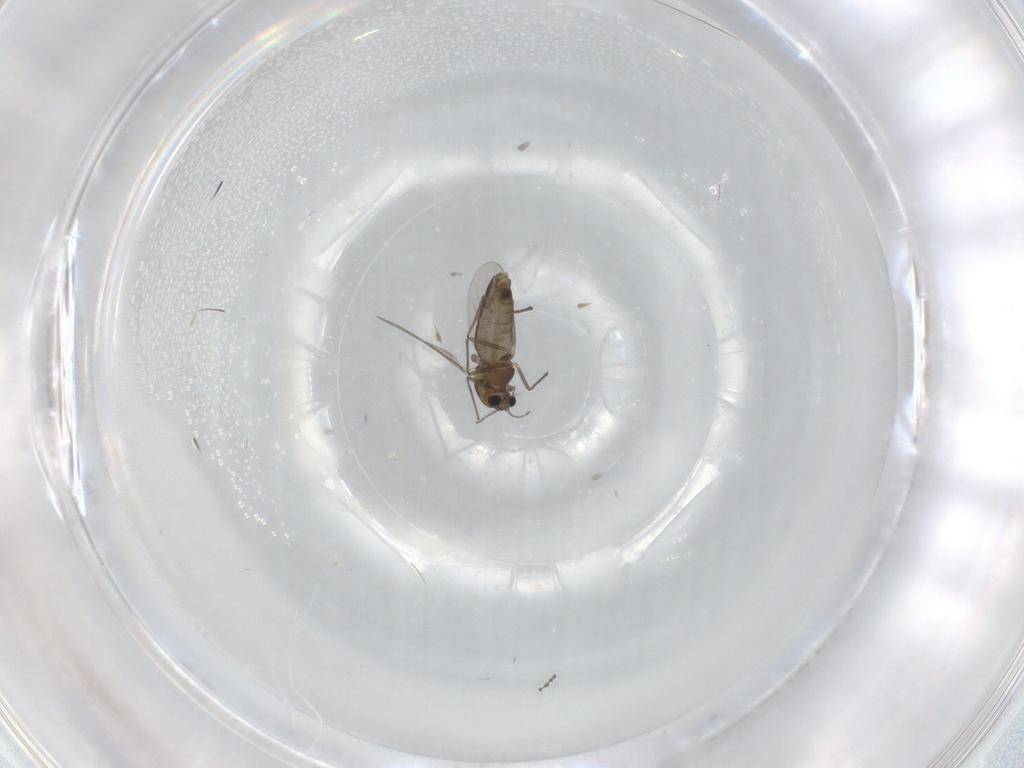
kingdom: Animalia
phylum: Arthropoda
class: Insecta
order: Diptera
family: Chironomidae
